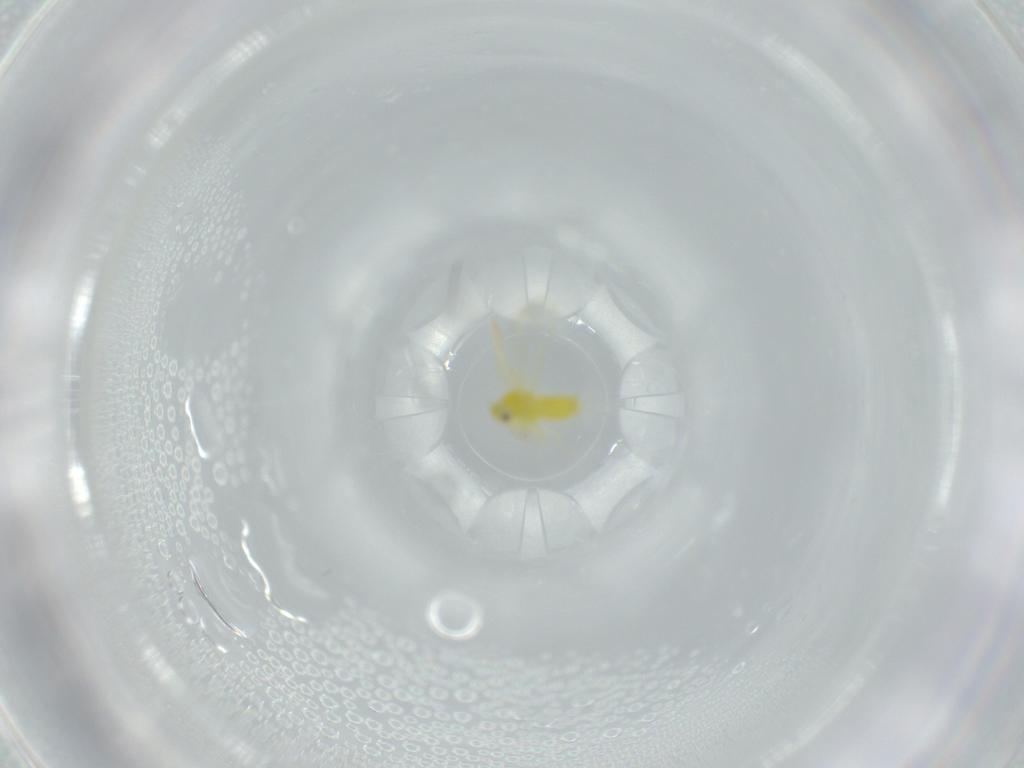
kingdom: Animalia
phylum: Arthropoda
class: Insecta
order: Hemiptera
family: Aleyrodidae
